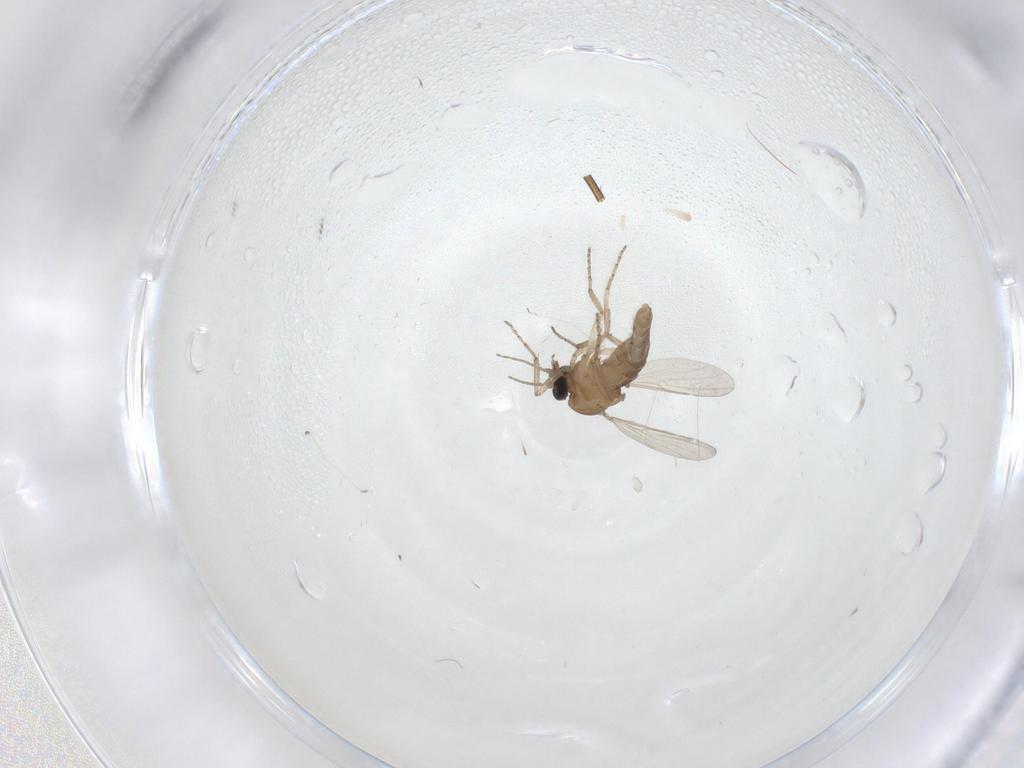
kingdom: Animalia
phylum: Arthropoda
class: Insecta
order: Diptera
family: Ceratopogonidae
